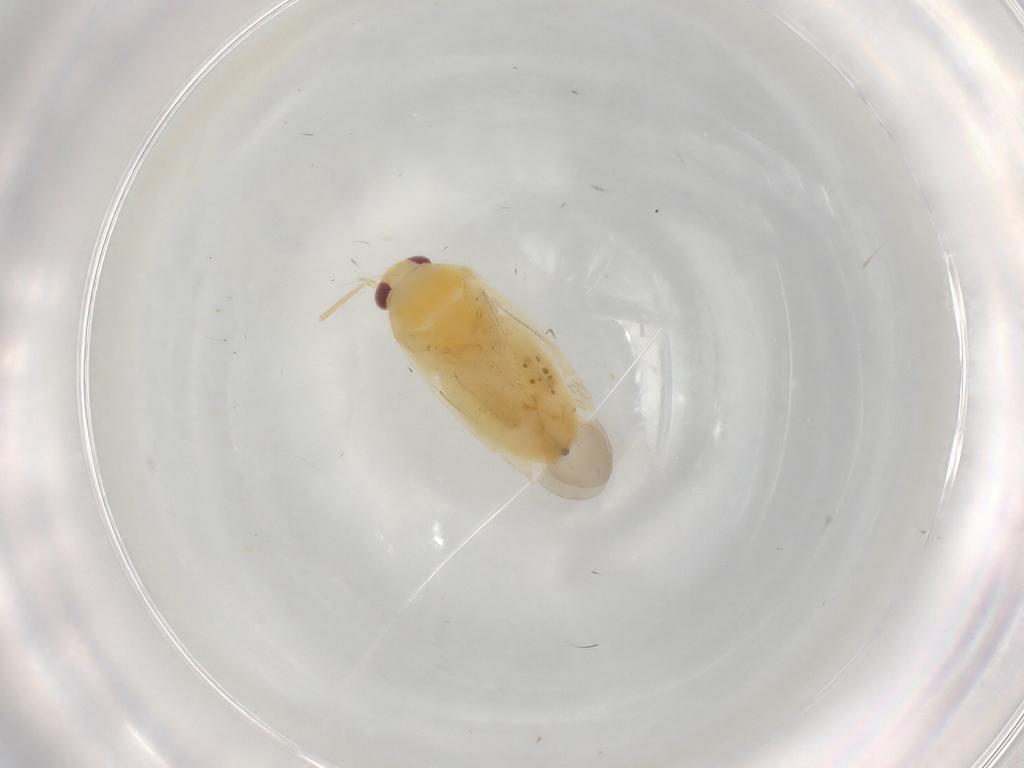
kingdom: Animalia
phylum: Arthropoda
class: Insecta
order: Hemiptera
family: Miridae
